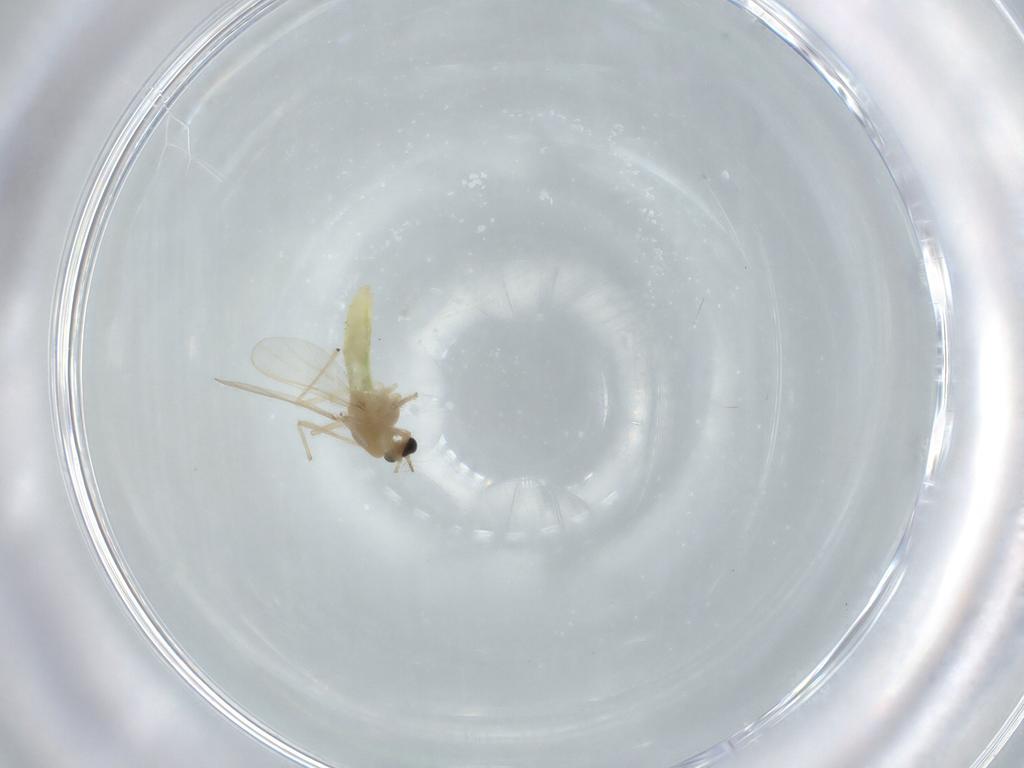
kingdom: Animalia
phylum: Arthropoda
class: Insecta
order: Diptera
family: Chironomidae
